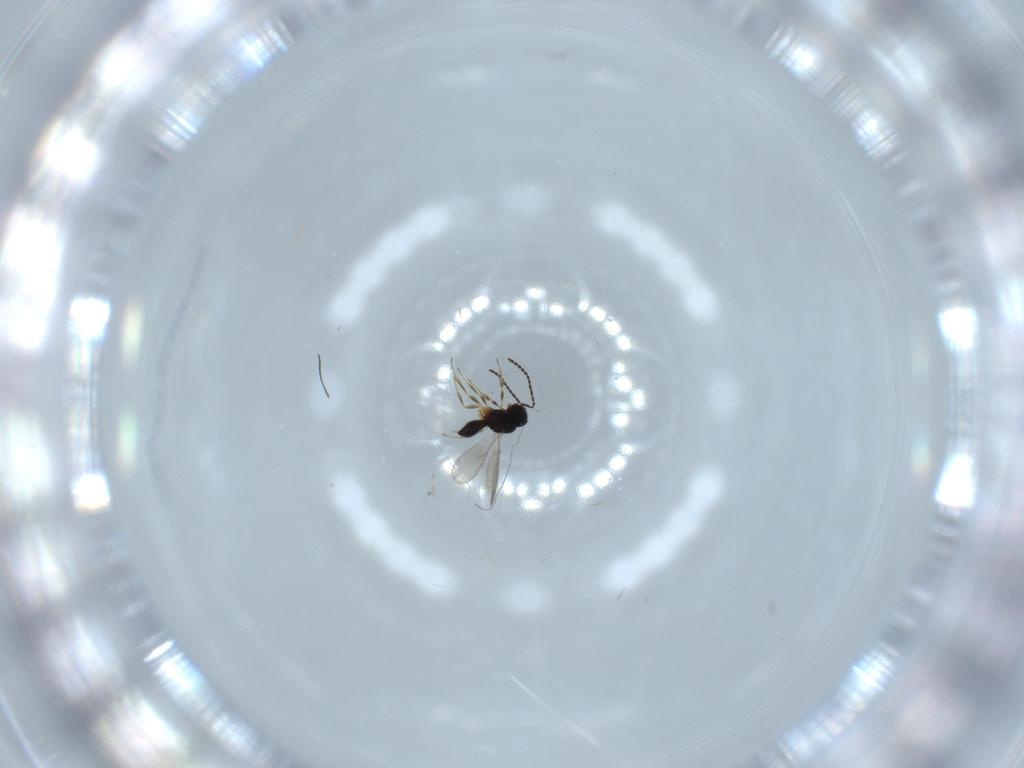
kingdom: Animalia
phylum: Arthropoda
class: Insecta
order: Hymenoptera
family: Scelionidae
